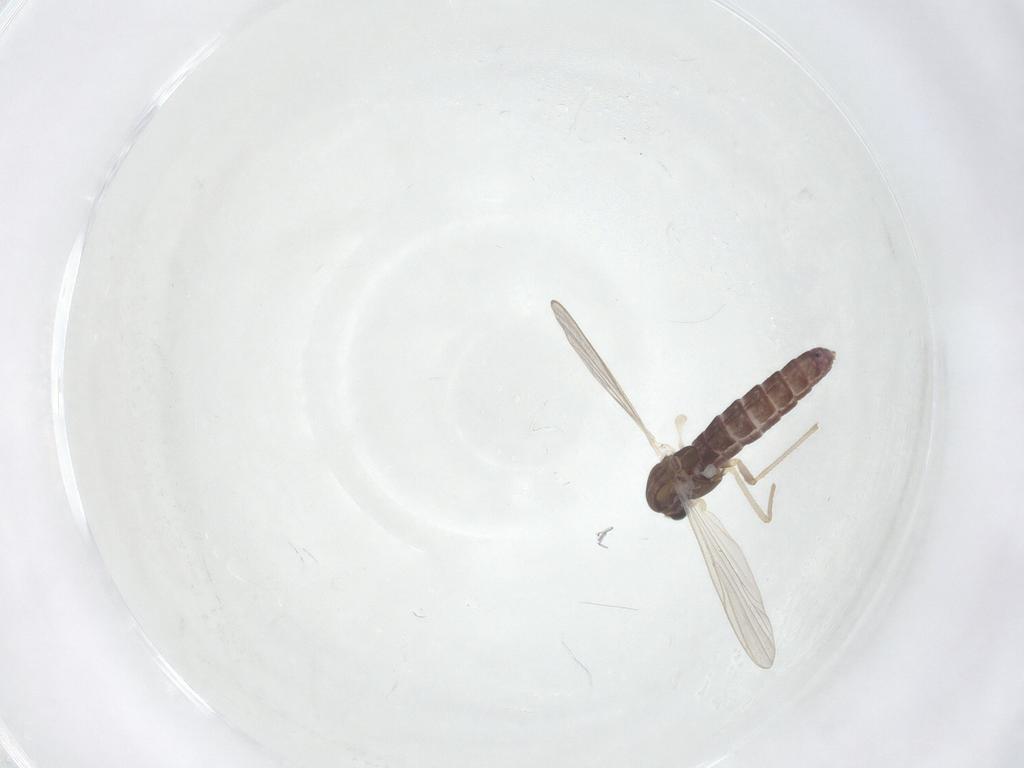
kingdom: Animalia
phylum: Arthropoda
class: Insecta
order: Diptera
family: Chironomidae
